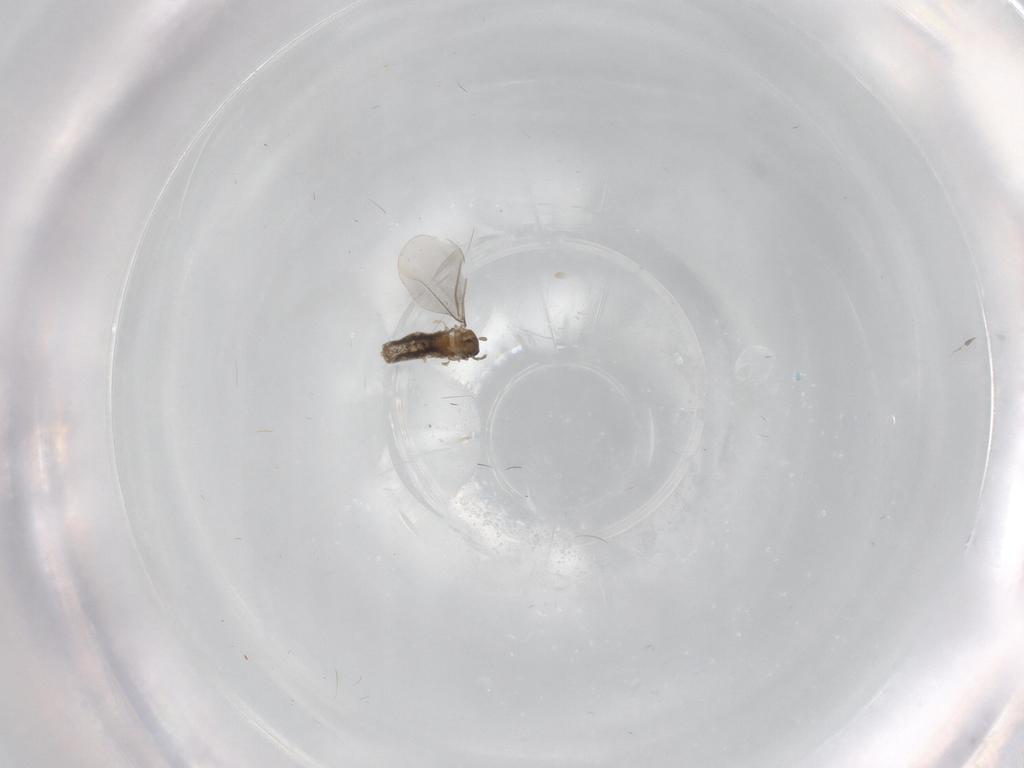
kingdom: Animalia
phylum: Arthropoda
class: Insecta
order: Diptera
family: Cecidomyiidae
